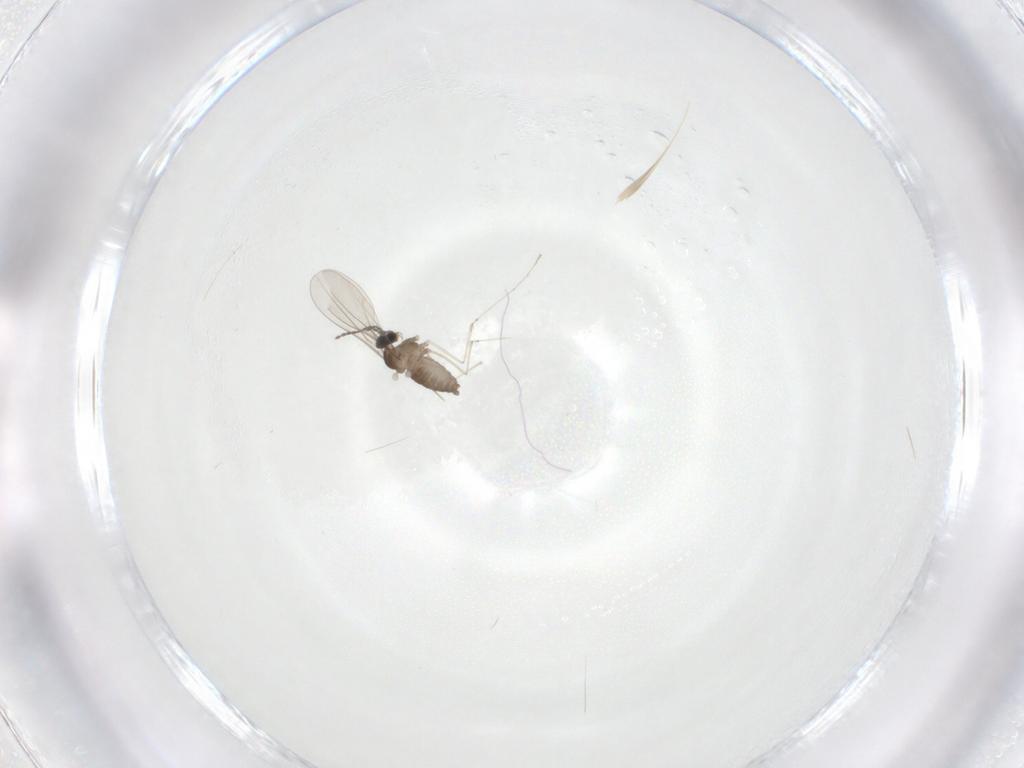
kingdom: Animalia
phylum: Arthropoda
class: Insecta
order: Diptera
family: Cecidomyiidae
